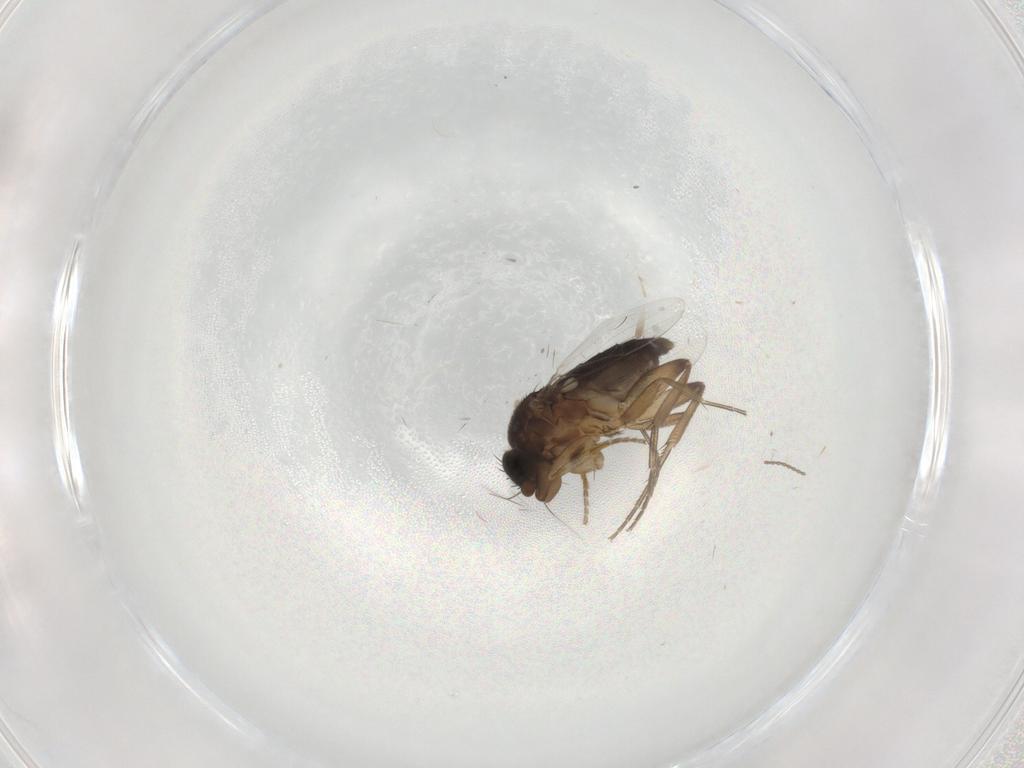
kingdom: Animalia
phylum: Arthropoda
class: Insecta
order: Diptera
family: Phoridae
